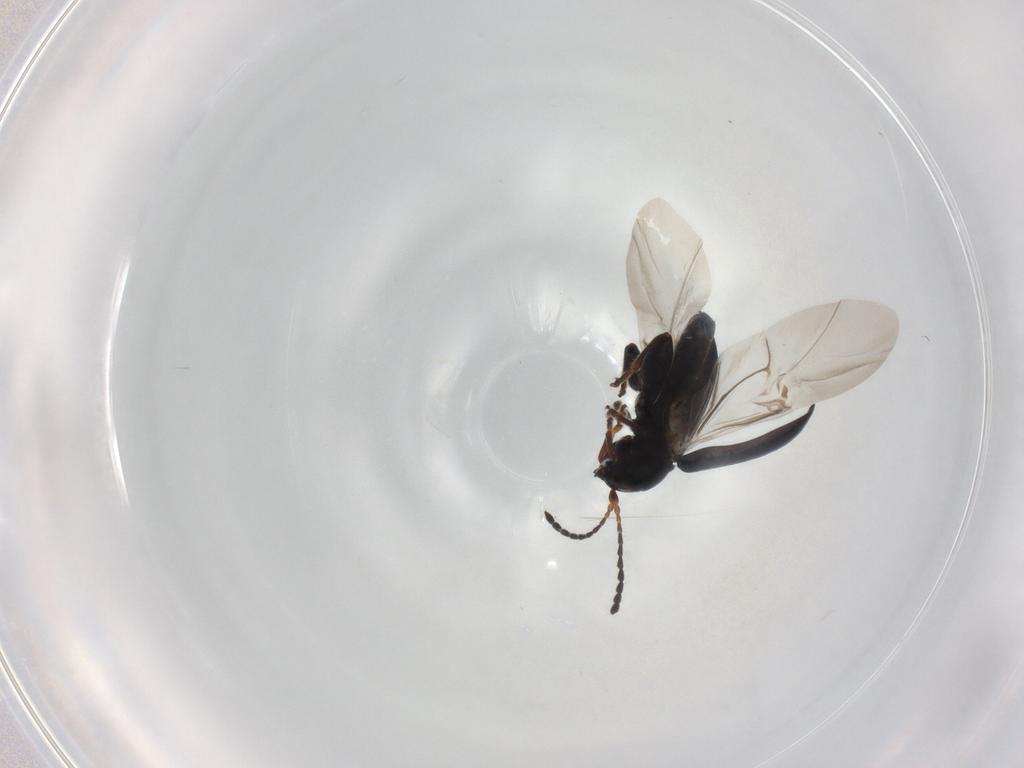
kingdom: Animalia
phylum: Arthropoda
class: Insecta
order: Coleoptera
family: Chrysomelidae
